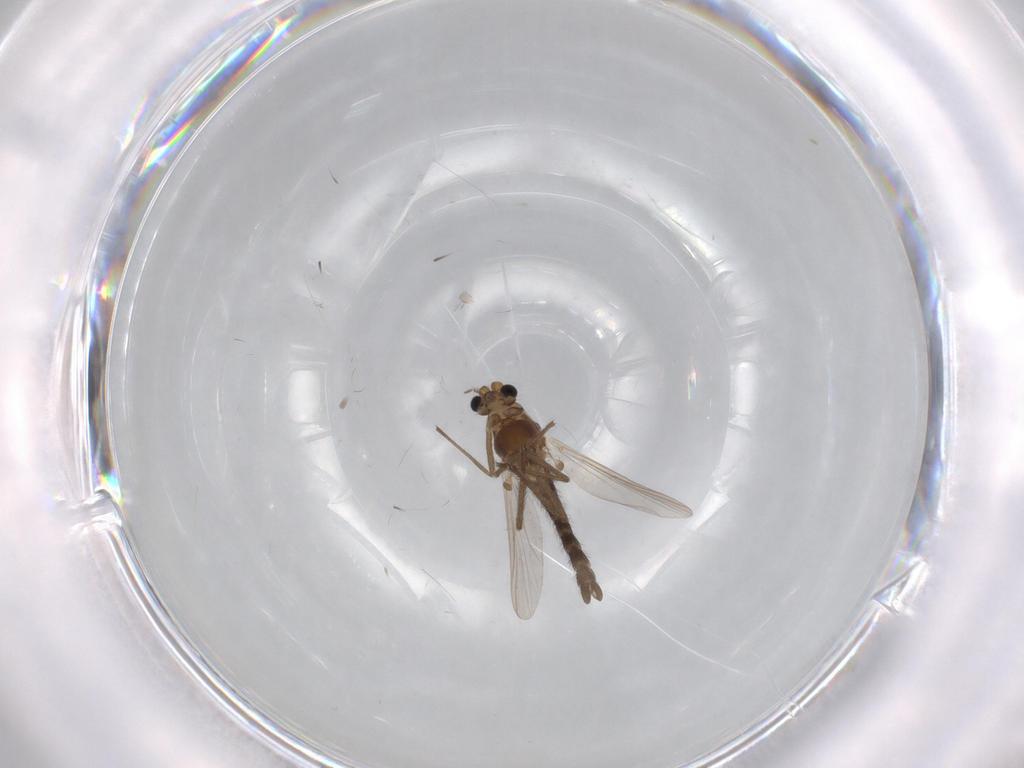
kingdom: Animalia
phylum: Arthropoda
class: Insecta
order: Diptera
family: Chironomidae
